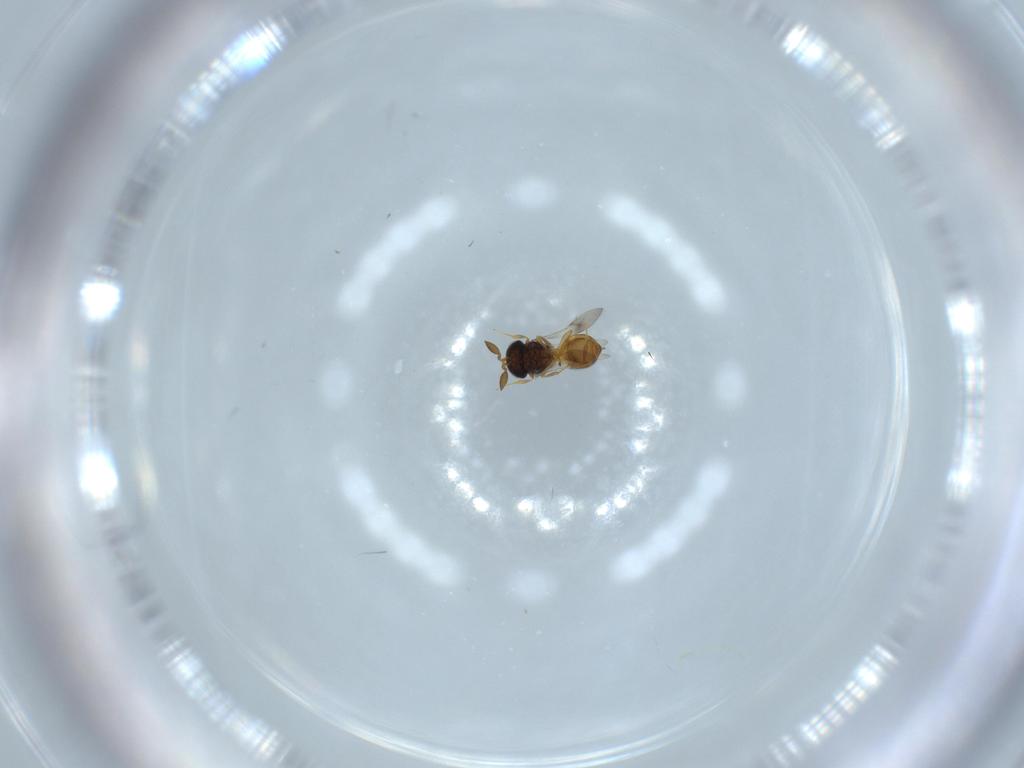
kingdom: Animalia
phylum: Arthropoda
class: Insecta
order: Hymenoptera
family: Scelionidae
